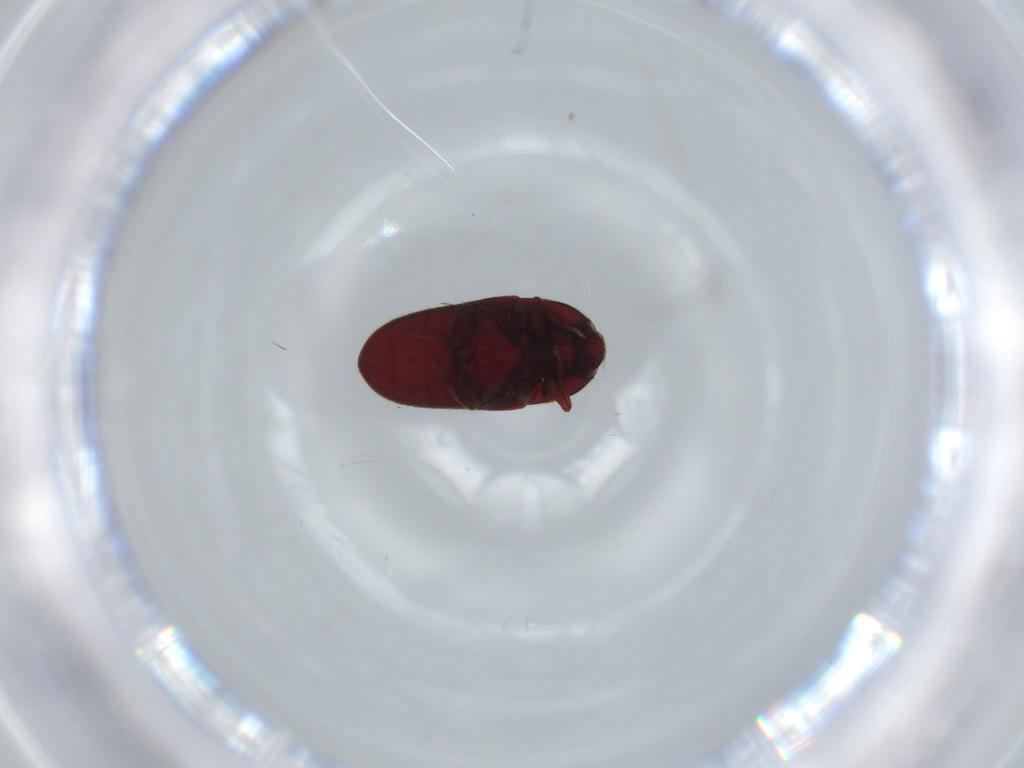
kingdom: Animalia
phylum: Arthropoda
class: Insecta
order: Coleoptera
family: Throscidae
